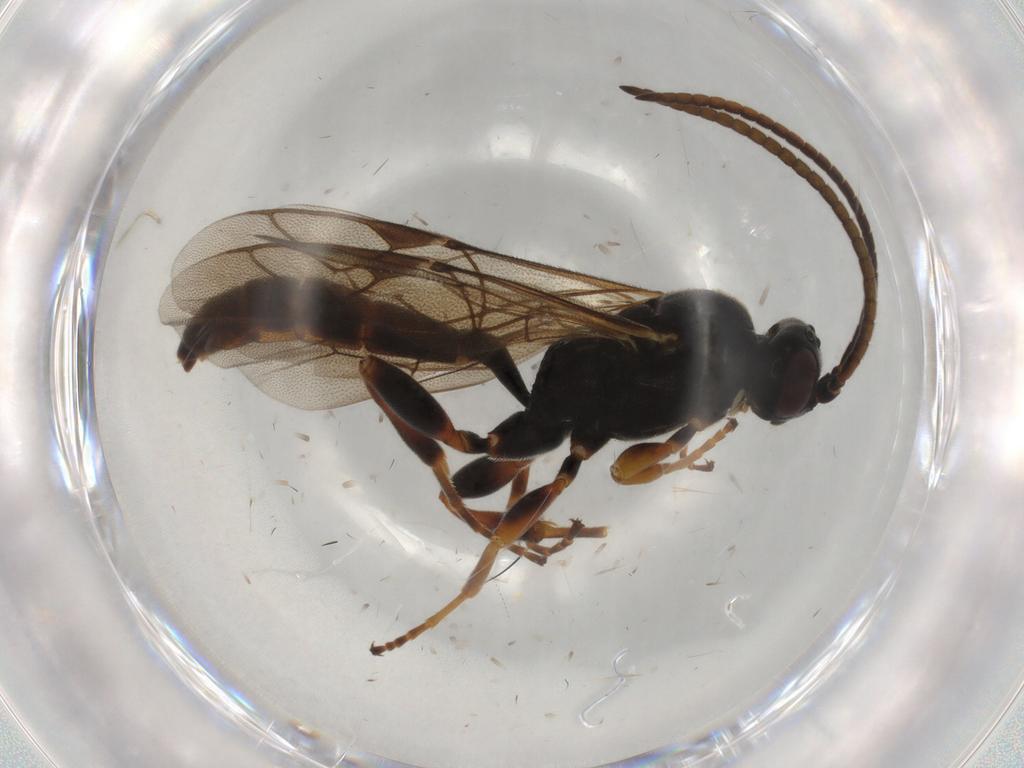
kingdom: Animalia
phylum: Arthropoda
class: Insecta
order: Hymenoptera
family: Ichneumonidae
